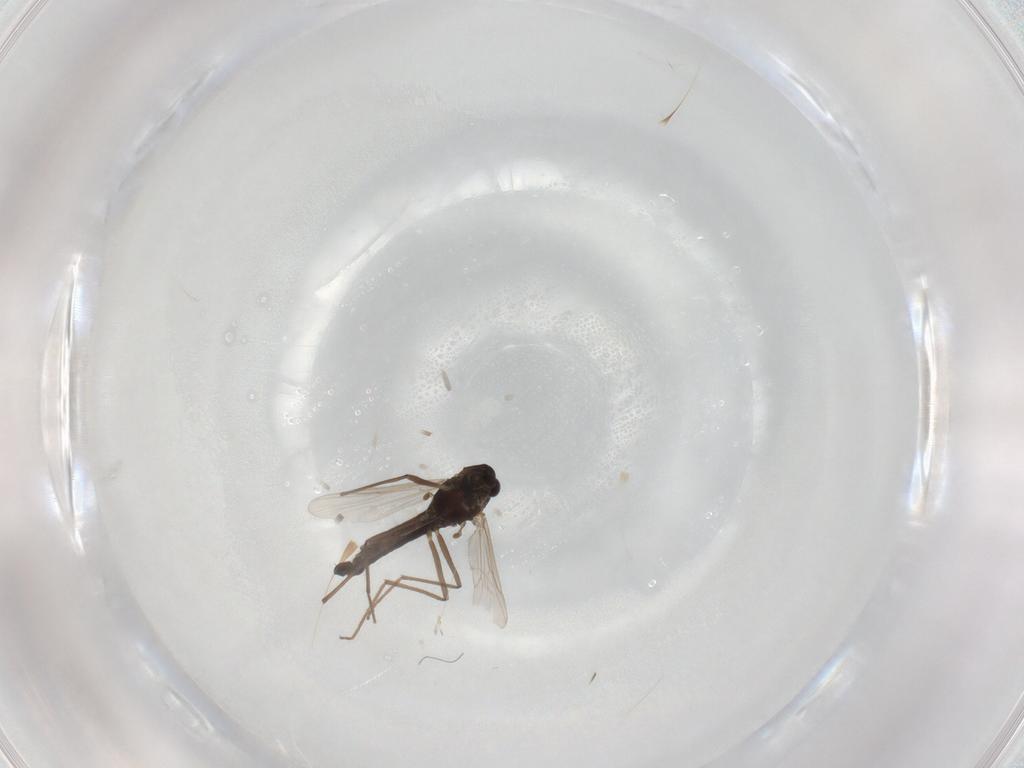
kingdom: Animalia
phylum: Arthropoda
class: Insecta
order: Diptera
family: Chironomidae
